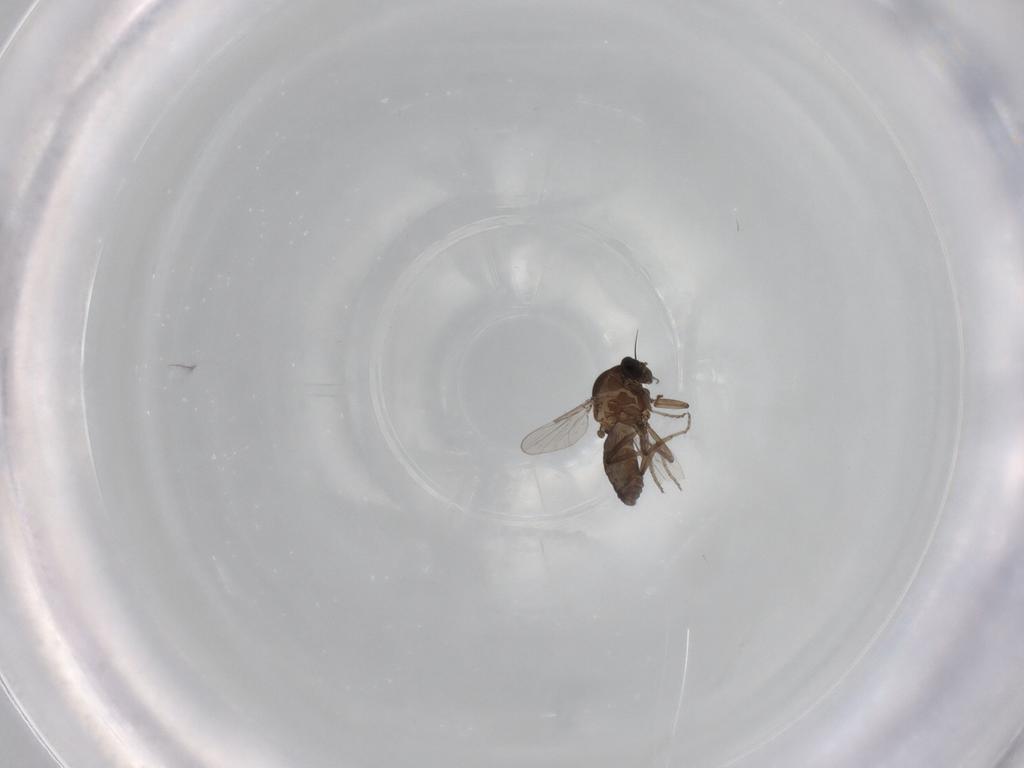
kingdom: Animalia
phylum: Arthropoda
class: Insecta
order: Diptera
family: Ceratopogonidae
